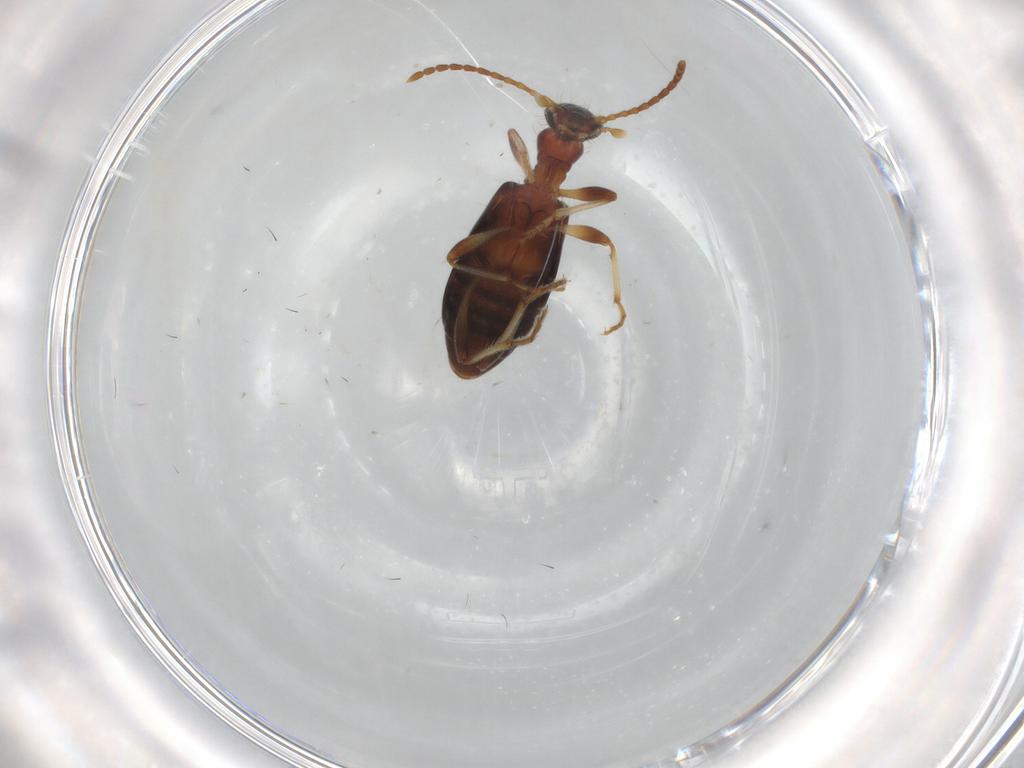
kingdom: Animalia
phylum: Arthropoda
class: Insecta
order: Coleoptera
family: Anthicidae
